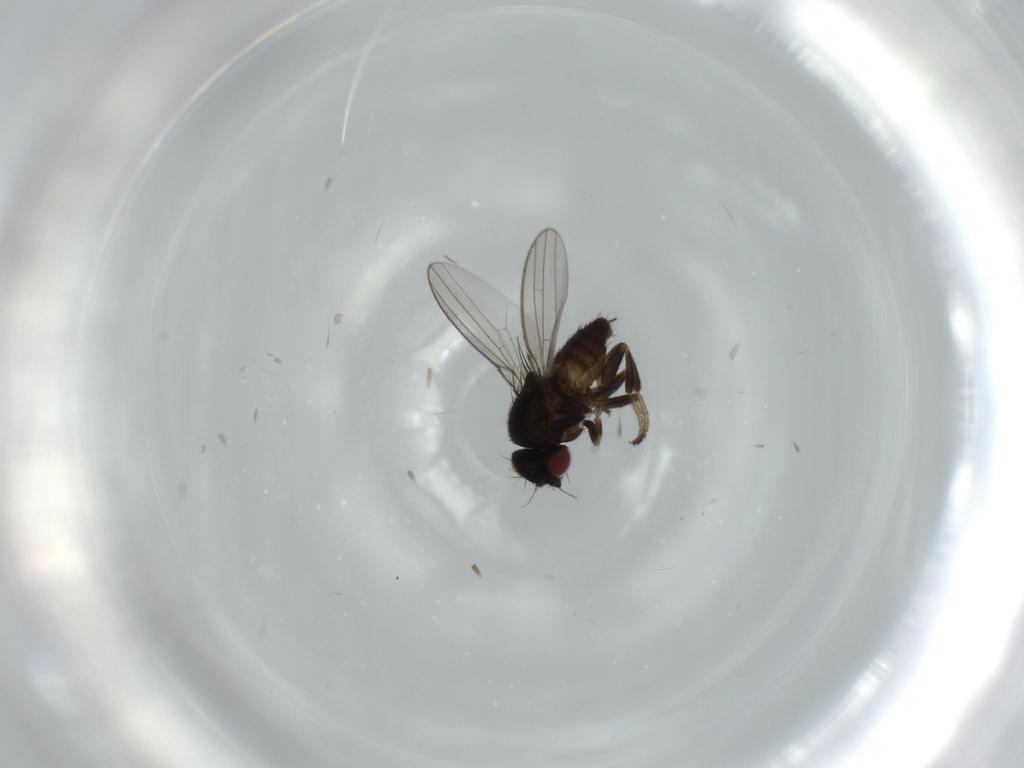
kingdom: Animalia
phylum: Arthropoda
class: Insecta
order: Diptera
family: Milichiidae
